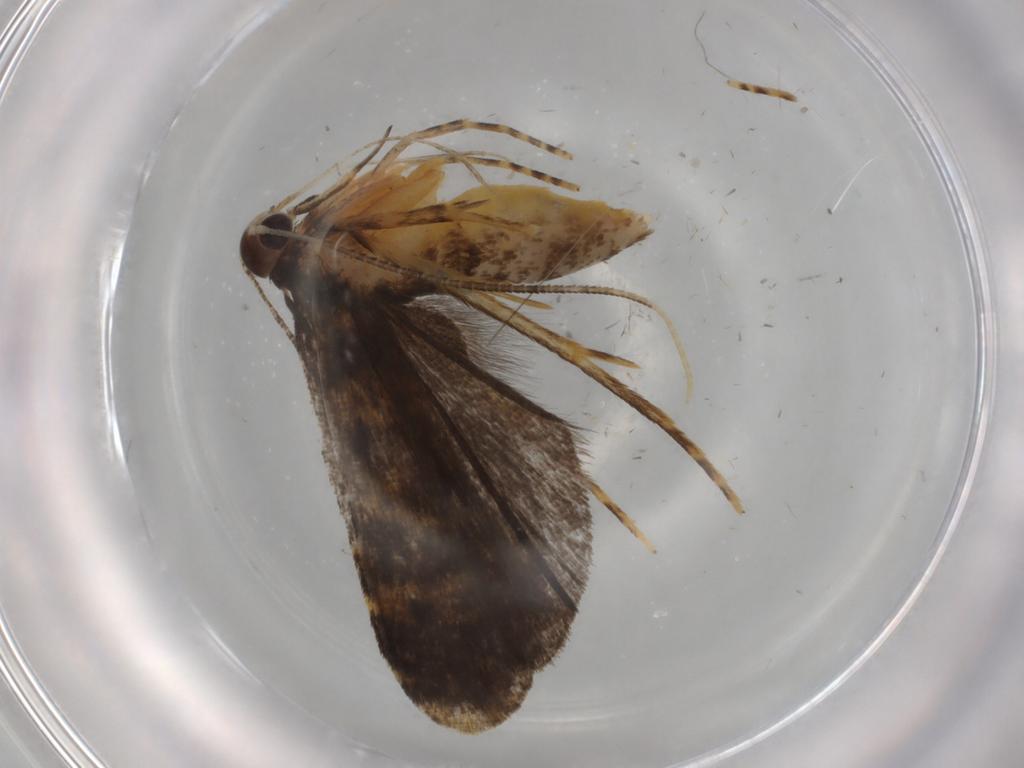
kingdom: Animalia
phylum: Arthropoda
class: Insecta
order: Lepidoptera
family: Cosmopterigidae
